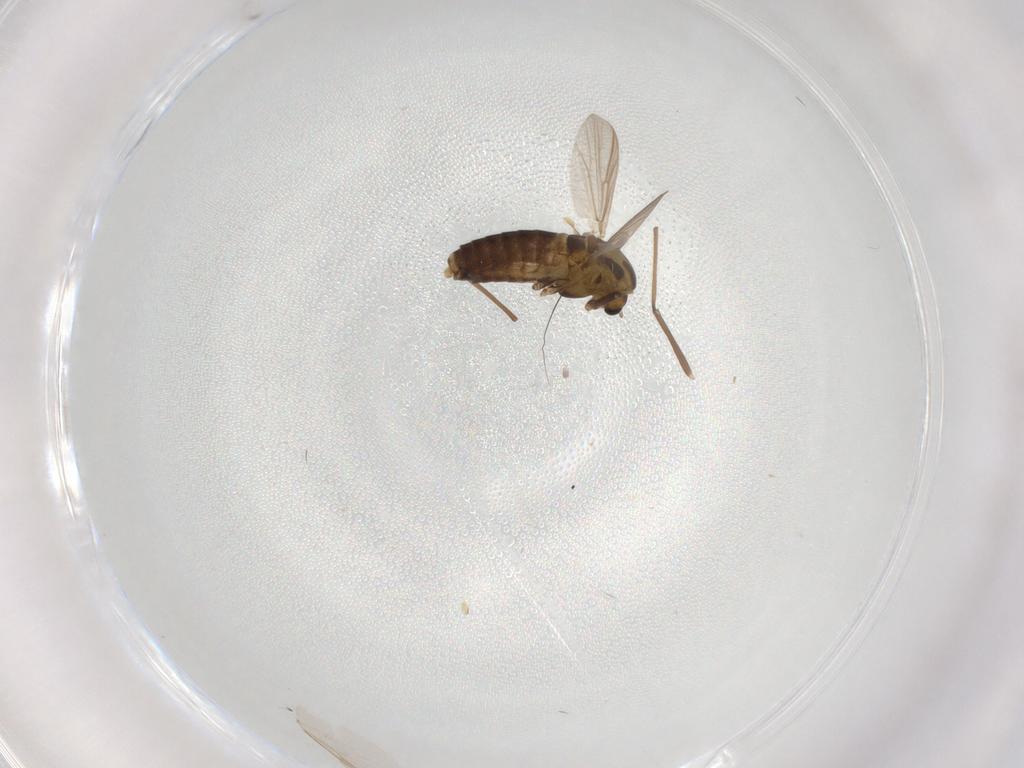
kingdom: Animalia
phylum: Arthropoda
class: Insecta
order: Diptera
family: Chironomidae
